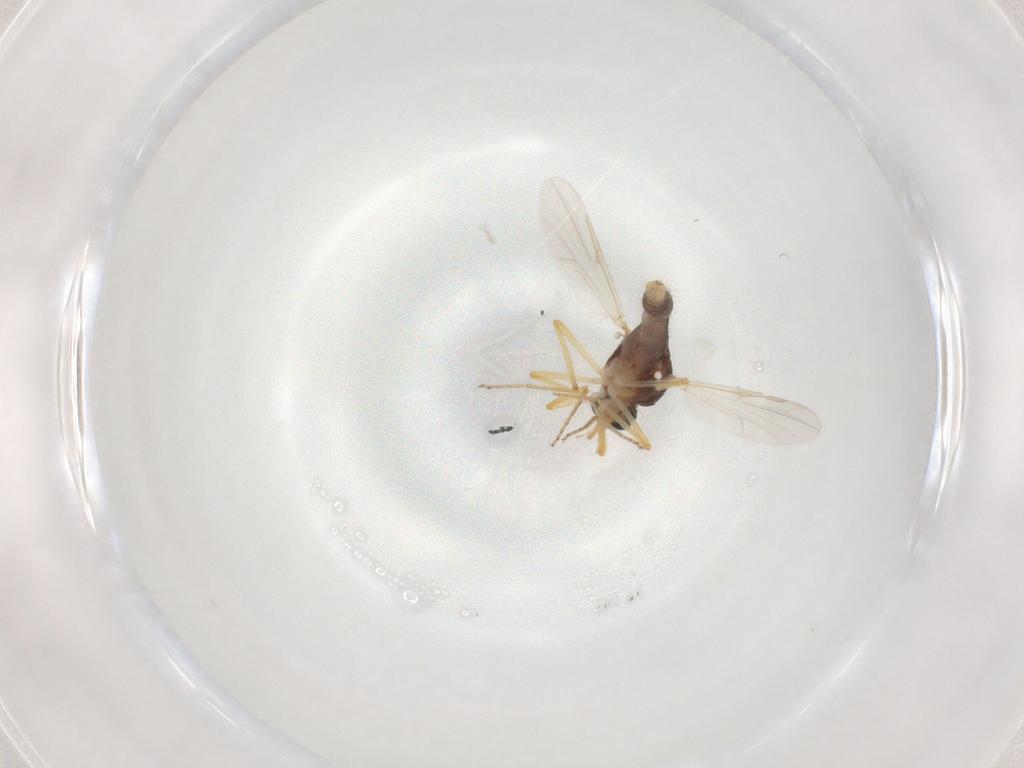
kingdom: Animalia
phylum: Arthropoda
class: Insecta
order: Diptera
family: Ceratopogonidae
